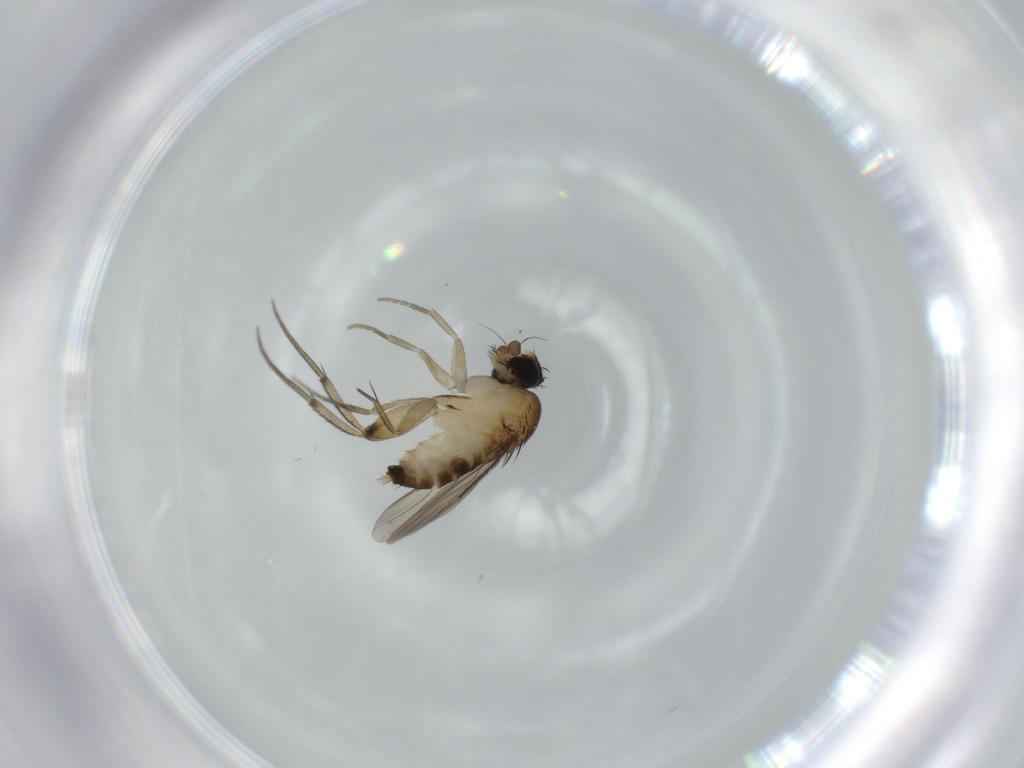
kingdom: Animalia
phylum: Arthropoda
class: Insecta
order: Diptera
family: Phoridae
